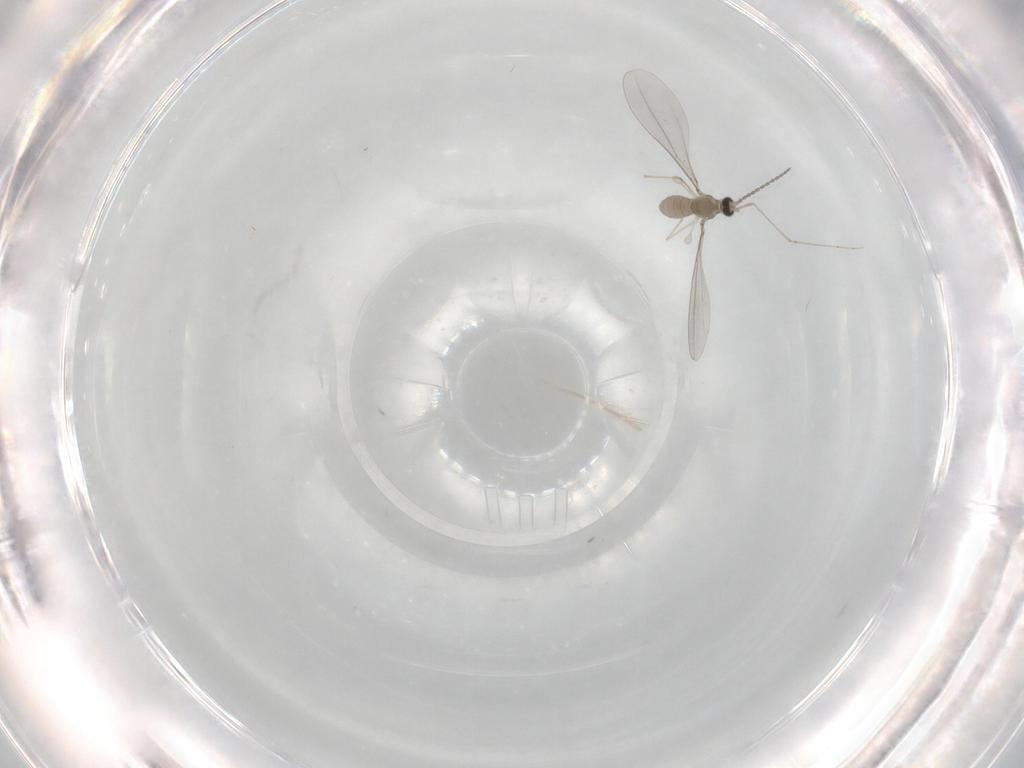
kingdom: Animalia
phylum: Arthropoda
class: Insecta
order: Diptera
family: Cecidomyiidae
